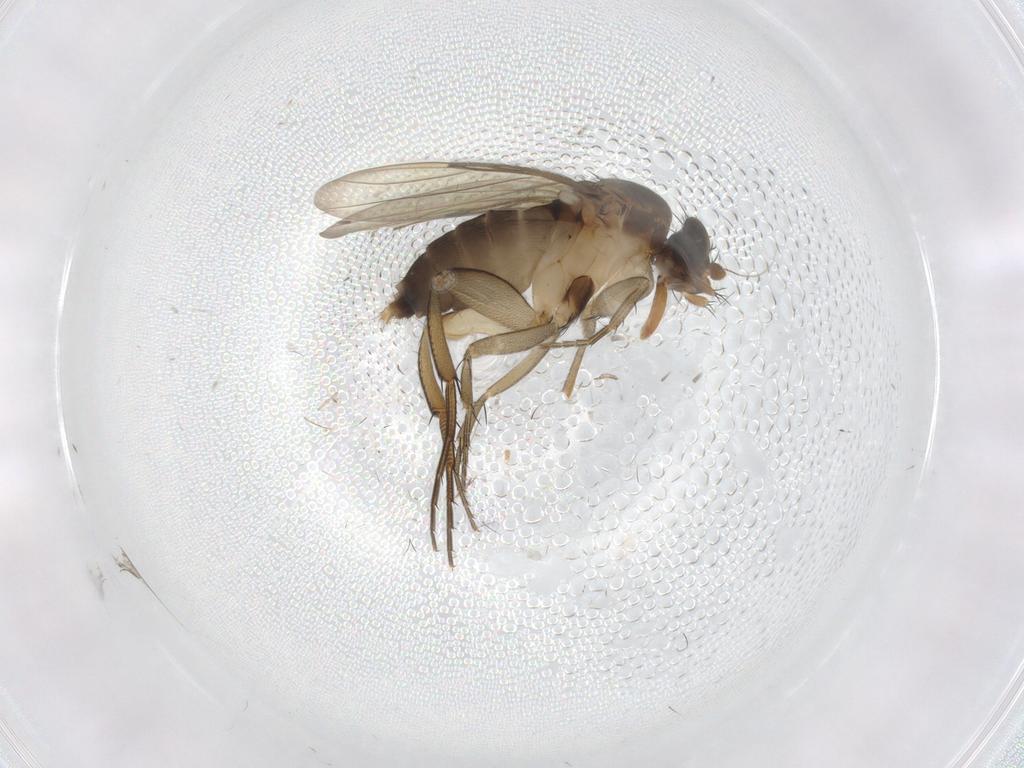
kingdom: Animalia
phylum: Arthropoda
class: Insecta
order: Diptera
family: Phoridae
